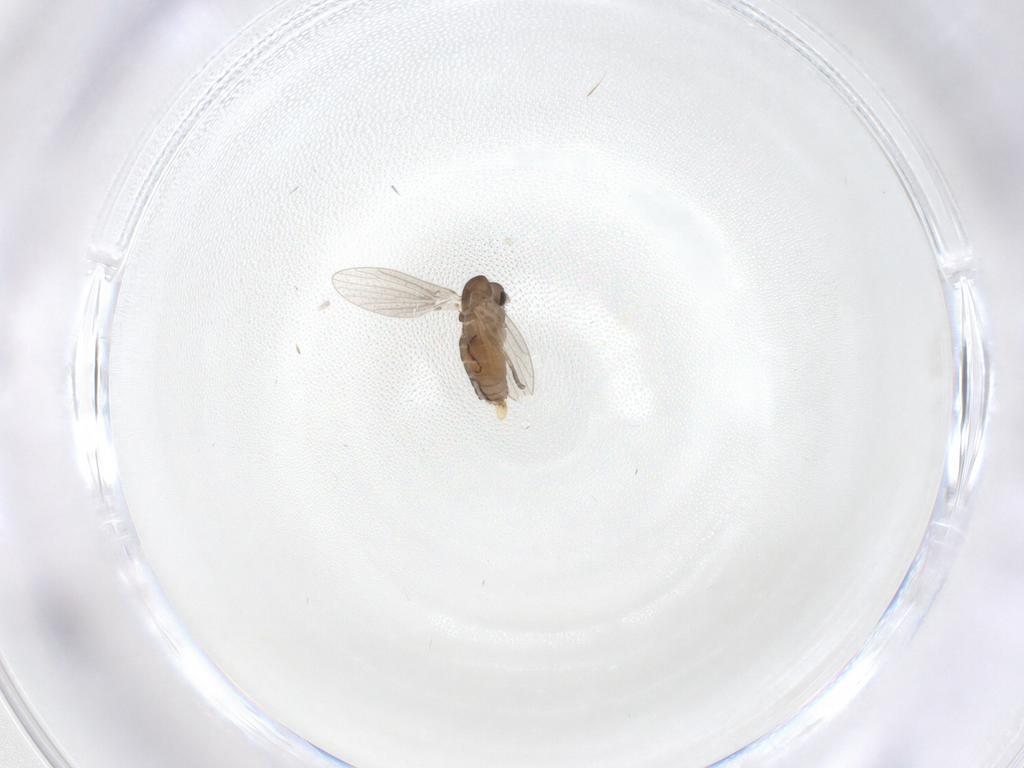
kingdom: Animalia
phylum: Arthropoda
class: Insecta
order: Diptera
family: Psychodidae
